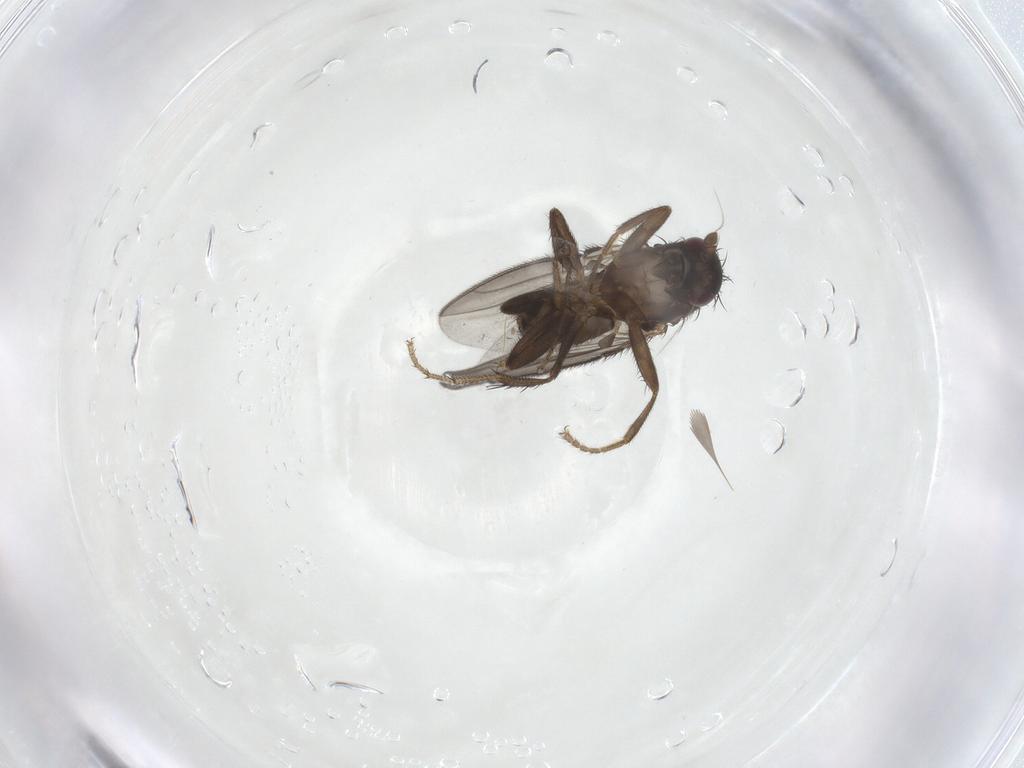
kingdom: Animalia
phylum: Arthropoda
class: Insecta
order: Diptera
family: Sphaeroceridae
